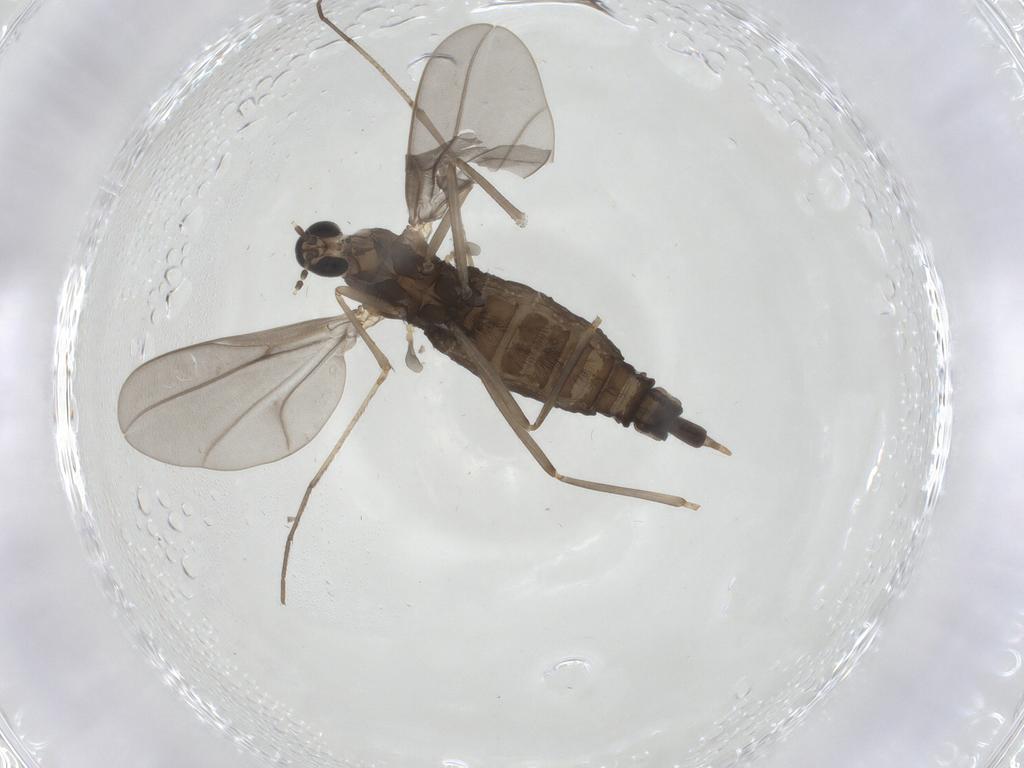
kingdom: Animalia
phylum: Arthropoda
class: Insecta
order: Diptera
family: Cecidomyiidae
